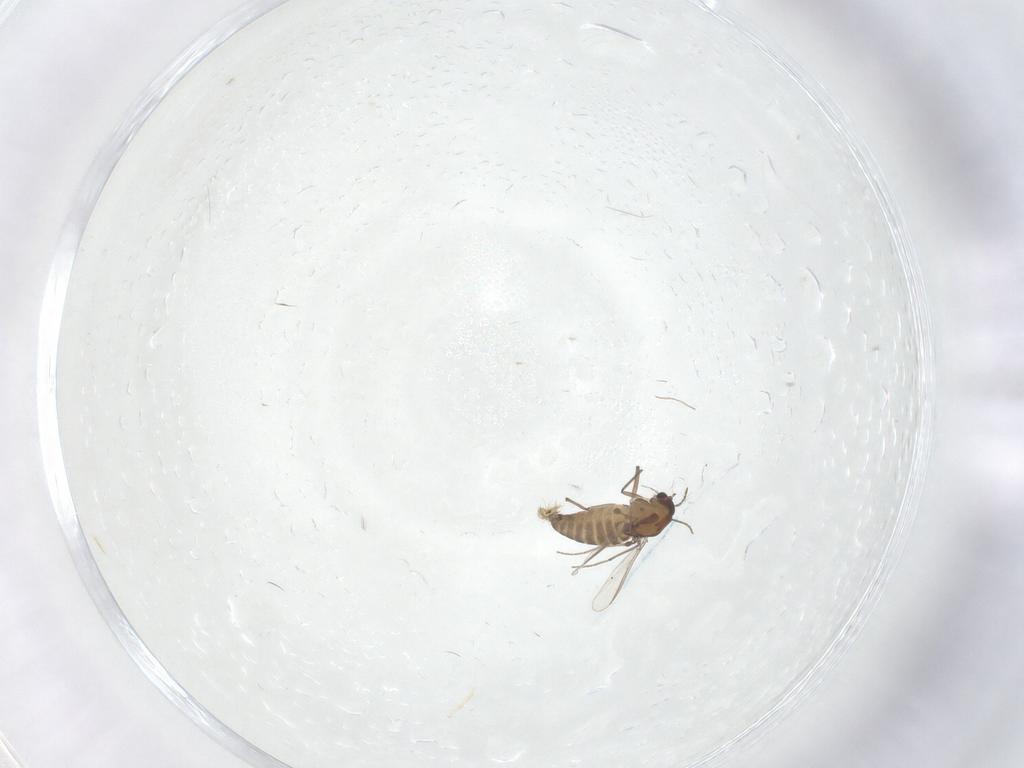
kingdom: Animalia
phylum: Arthropoda
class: Insecta
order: Diptera
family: Chironomidae
